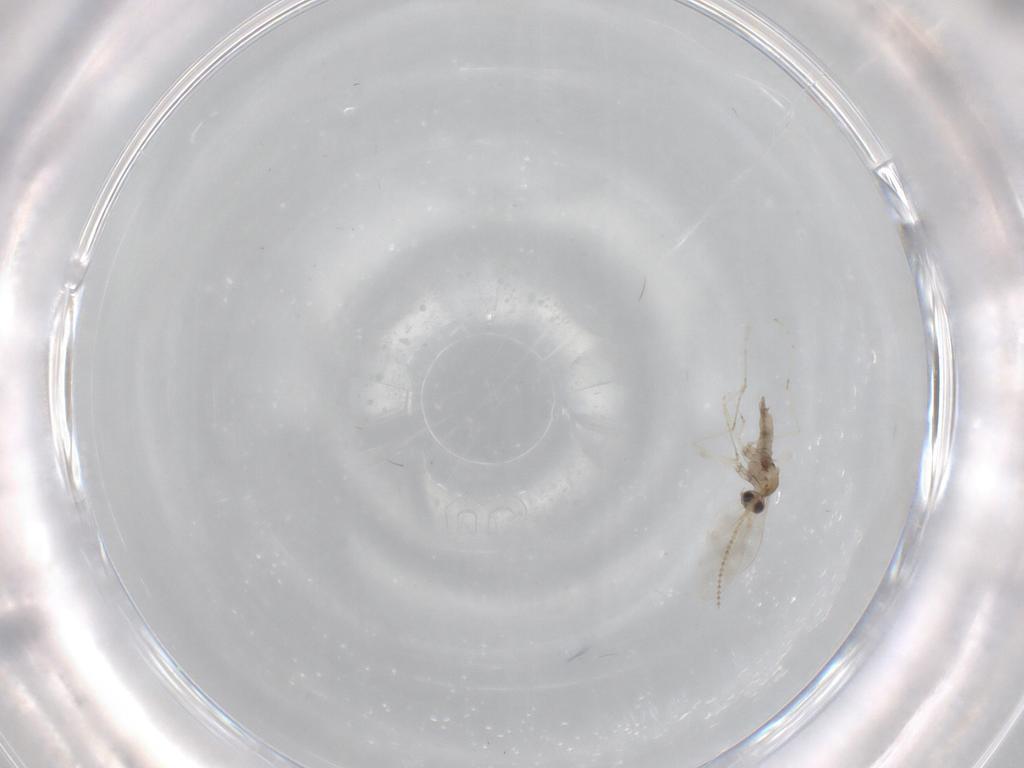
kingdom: Animalia
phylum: Arthropoda
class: Insecta
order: Diptera
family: Cecidomyiidae
